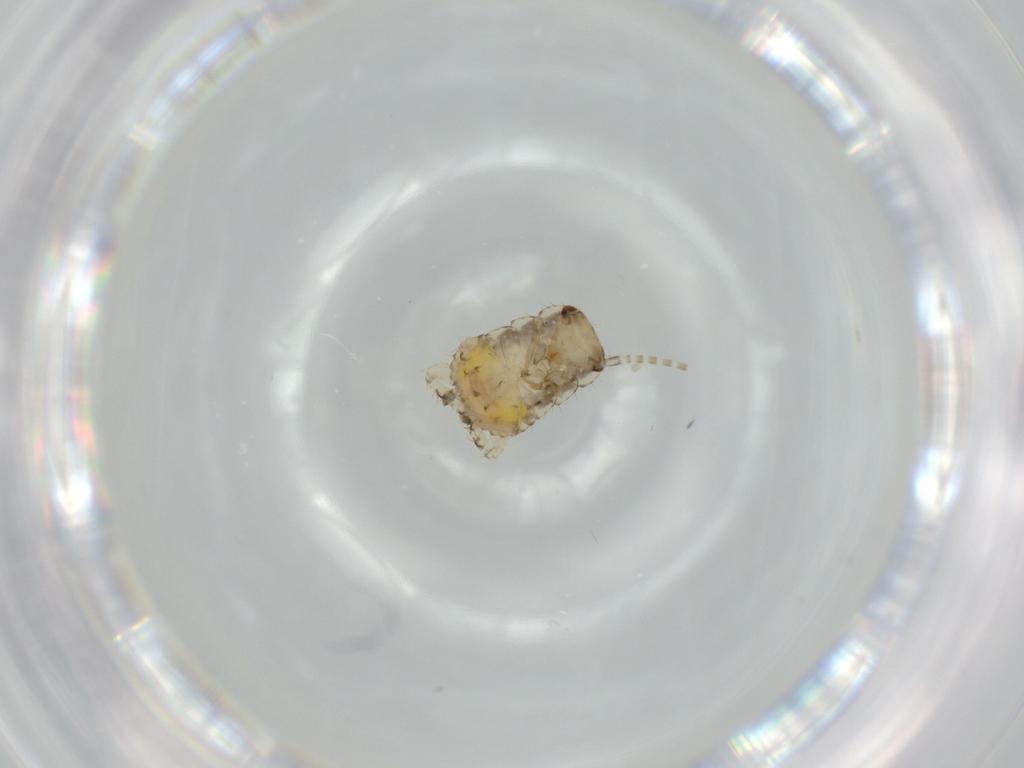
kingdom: Animalia
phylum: Arthropoda
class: Insecta
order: Blattodea
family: Ectobiidae
